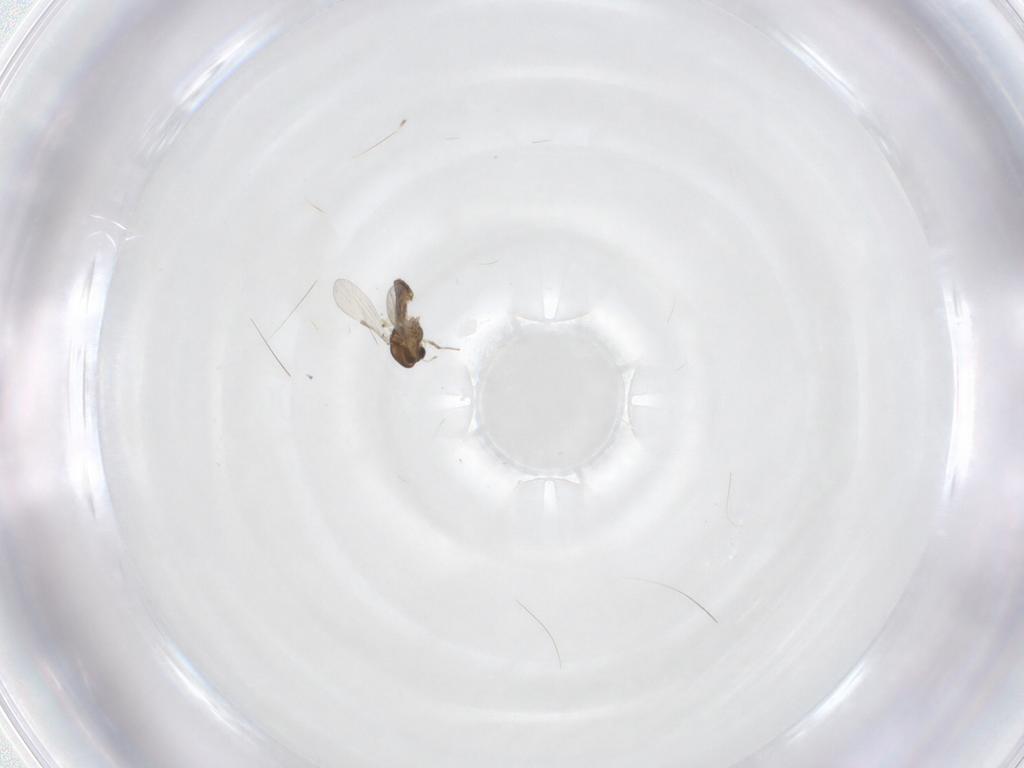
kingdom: Animalia
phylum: Arthropoda
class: Insecta
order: Diptera
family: Chironomidae
